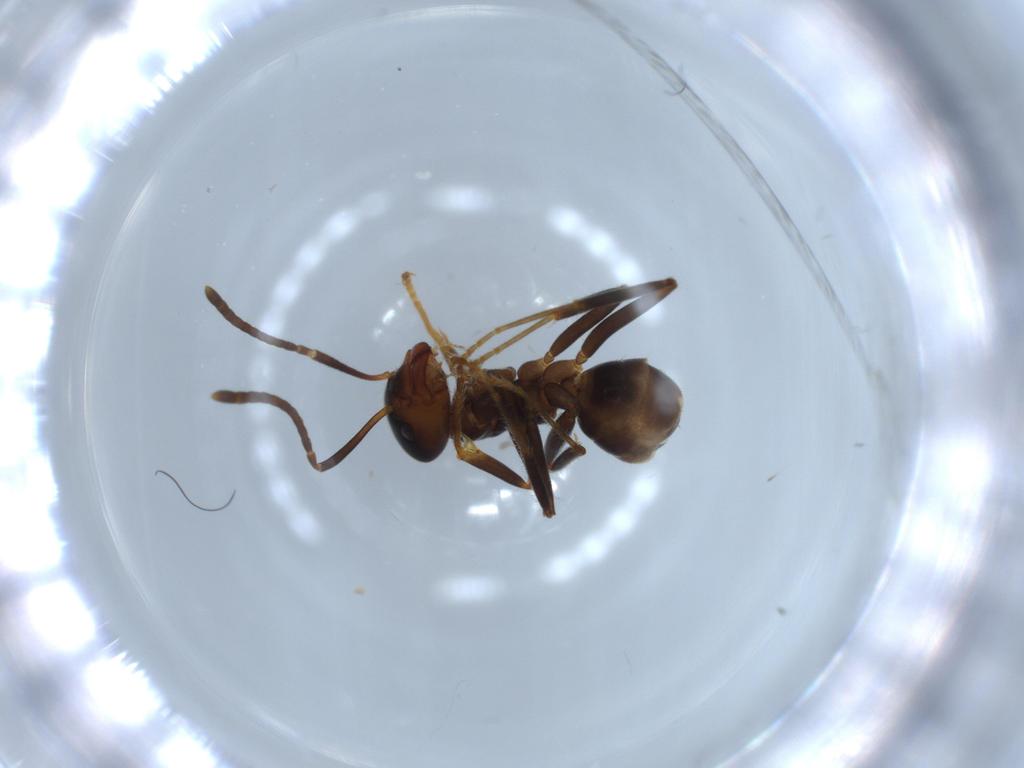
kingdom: Animalia
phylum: Arthropoda
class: Insecta
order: Hymenoptera
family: Formicidae
